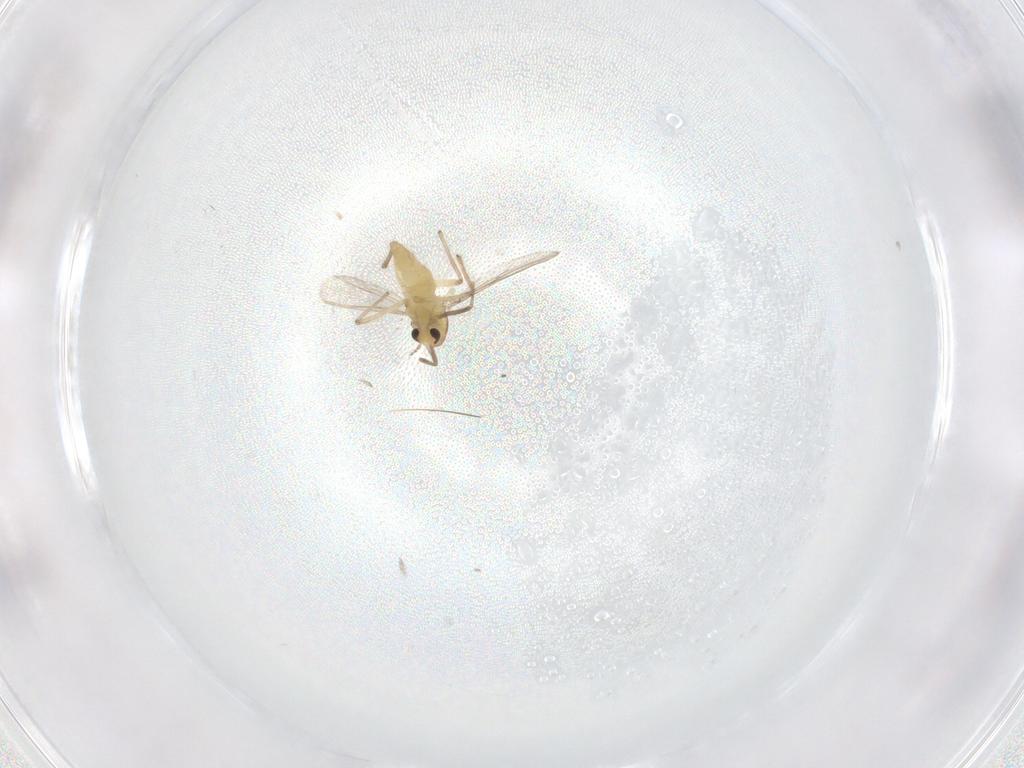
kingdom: Animalia
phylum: Arthropoda
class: Insecta
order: Diptera
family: Chironomidae
